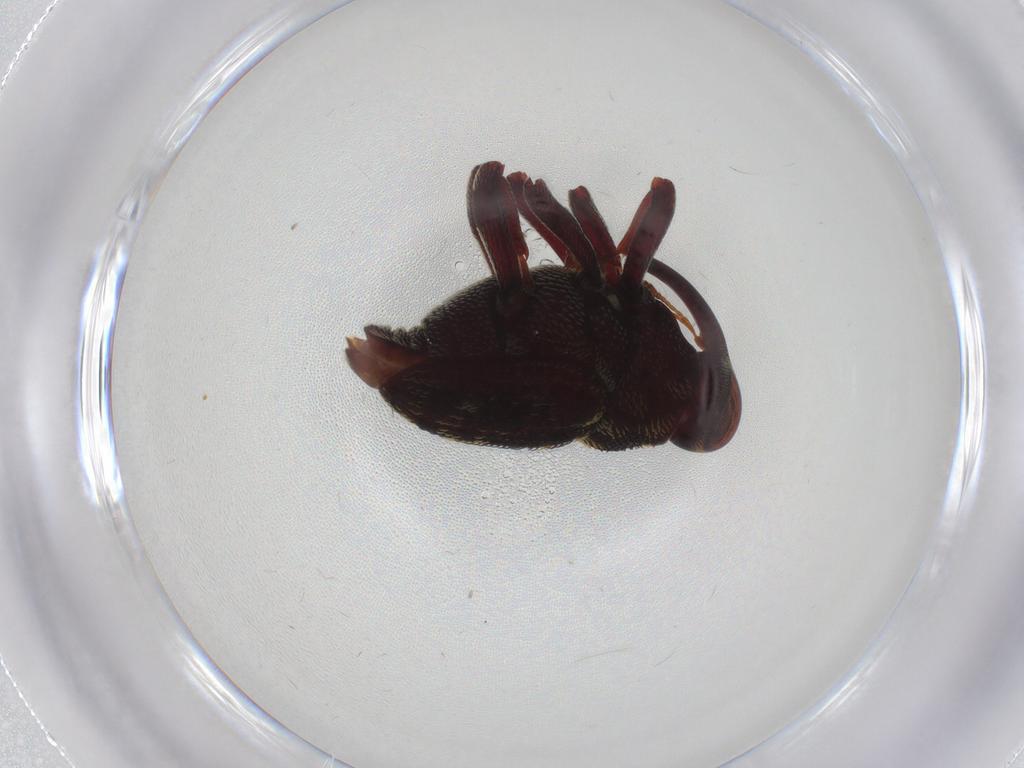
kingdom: Animalia
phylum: Arthropoda
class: Insecta
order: Coleoptera
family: Curculionidae
